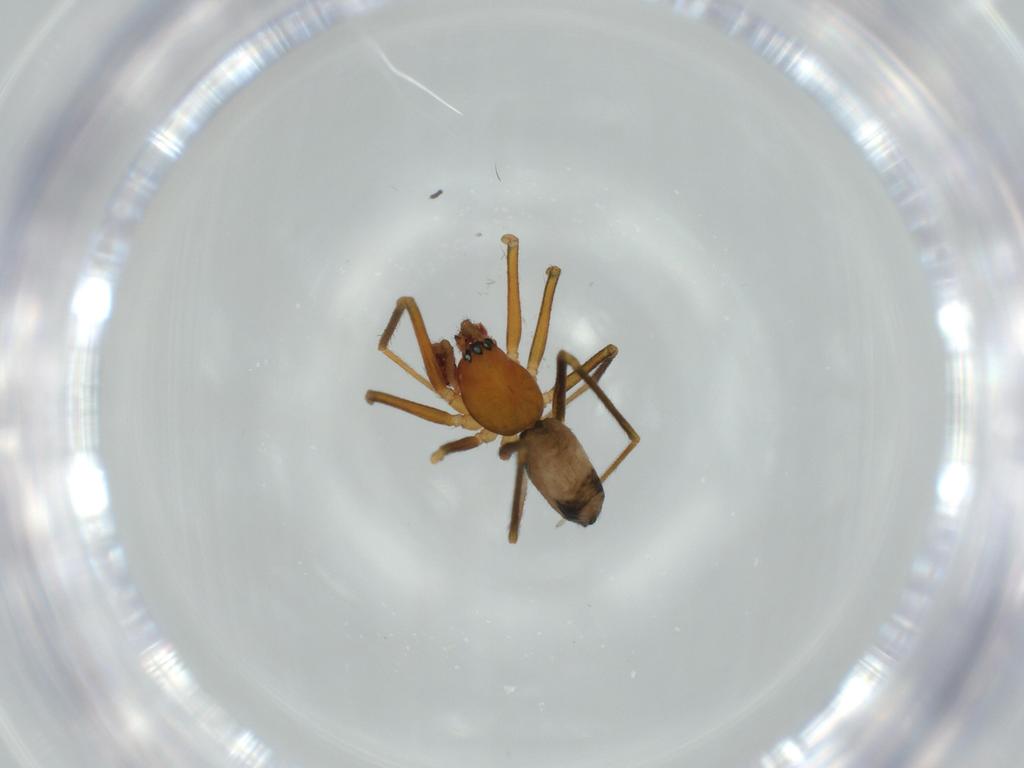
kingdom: Animalia
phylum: Arthropoda
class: Arachnida
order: Araneae
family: Linyphiidae
